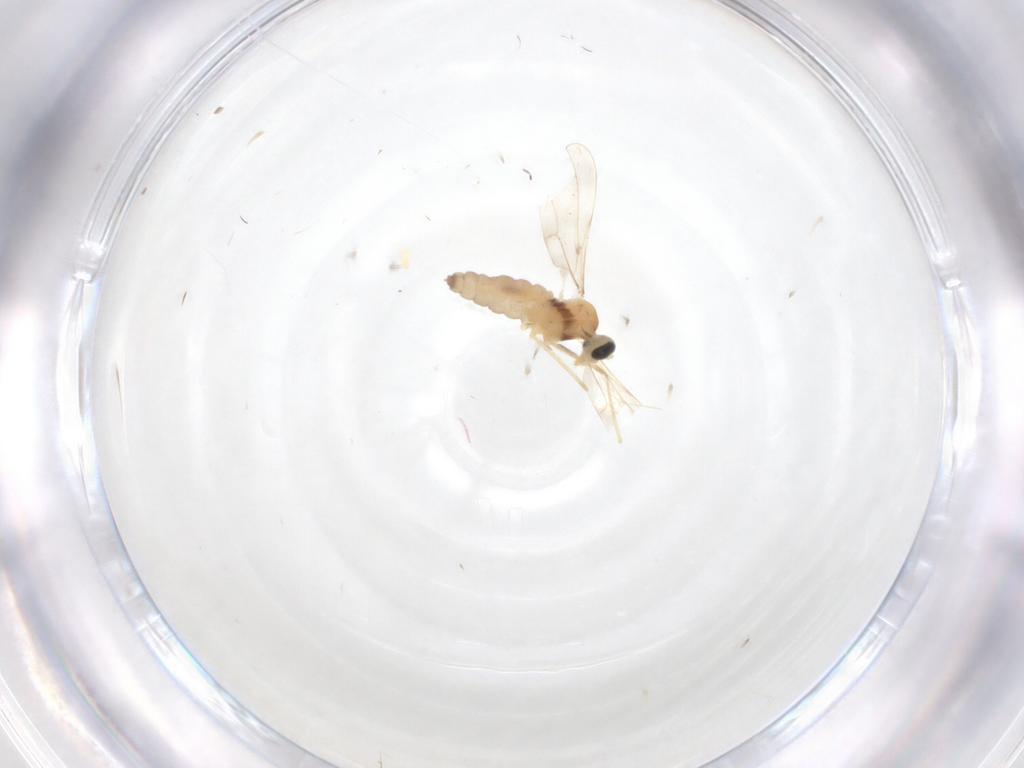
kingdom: Animalia
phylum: Arthropoda
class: Insecta
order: Diptera
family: Cecidomyiidae
